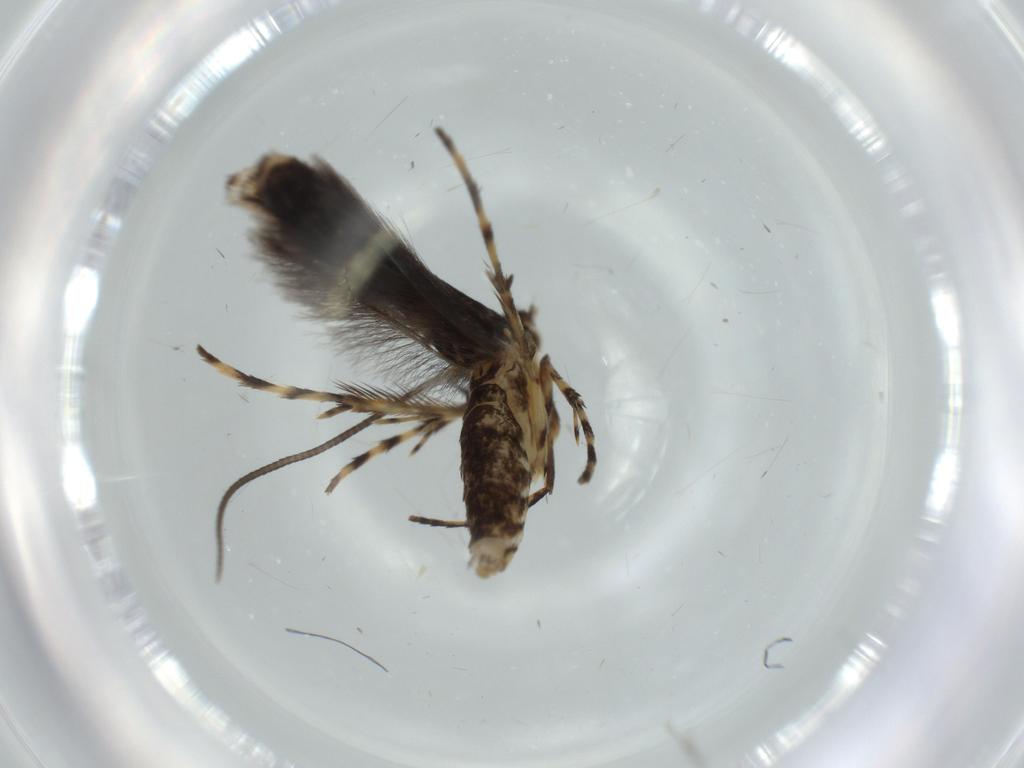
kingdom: Animalia
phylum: Arthropoda
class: Insecta
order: Lepidoptera
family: Gracillariidae
